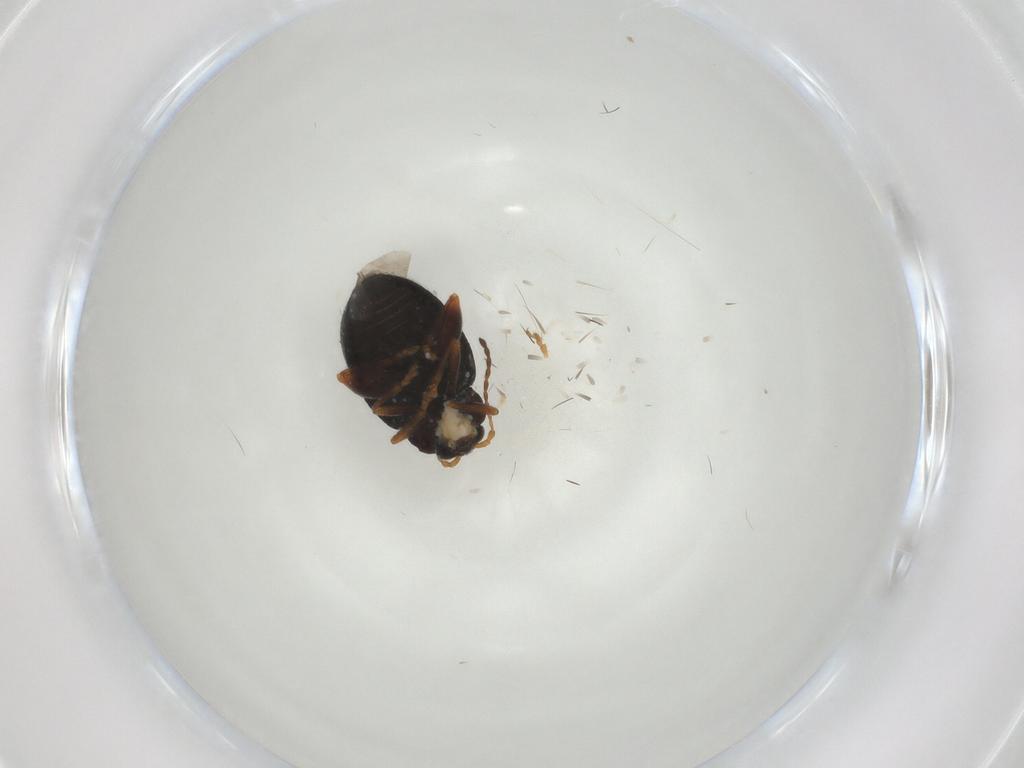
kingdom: Animalia
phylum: Arthropoda
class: Insecta
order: Coleoptera
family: Chrysomelidae
